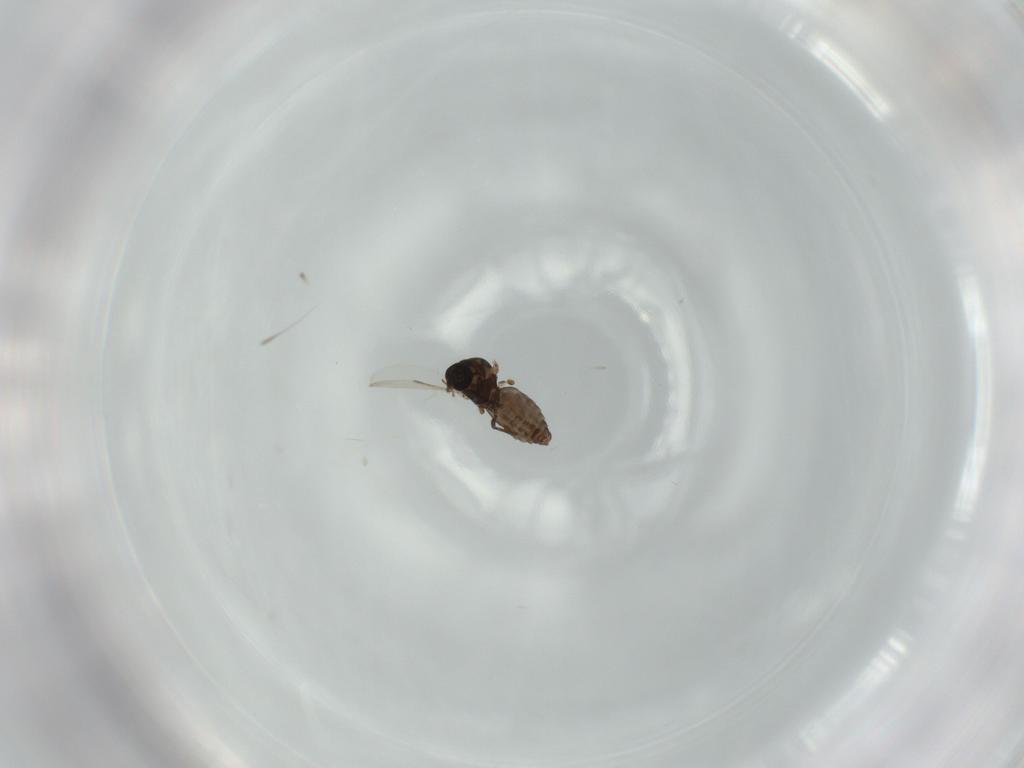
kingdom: Animalia
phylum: Arthropoda
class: Insecta
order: Diptera
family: Ceratopogonidae
